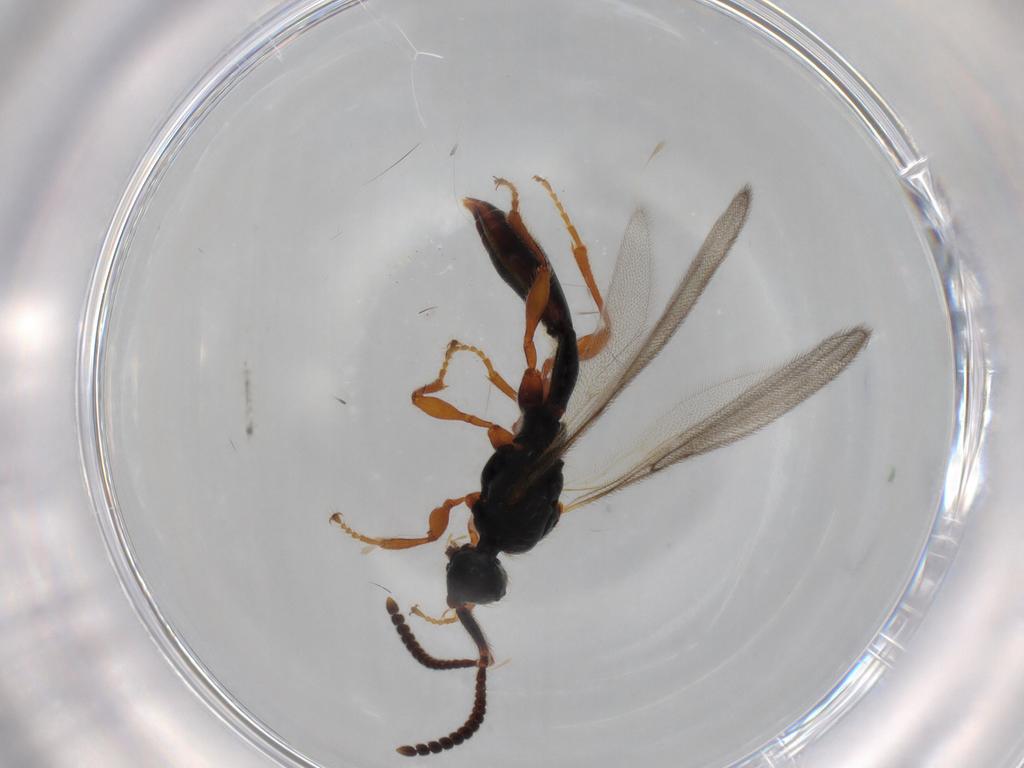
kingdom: Animalia
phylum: Arthropoda
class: Insecta
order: Hymenoptera
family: Diapriidae
